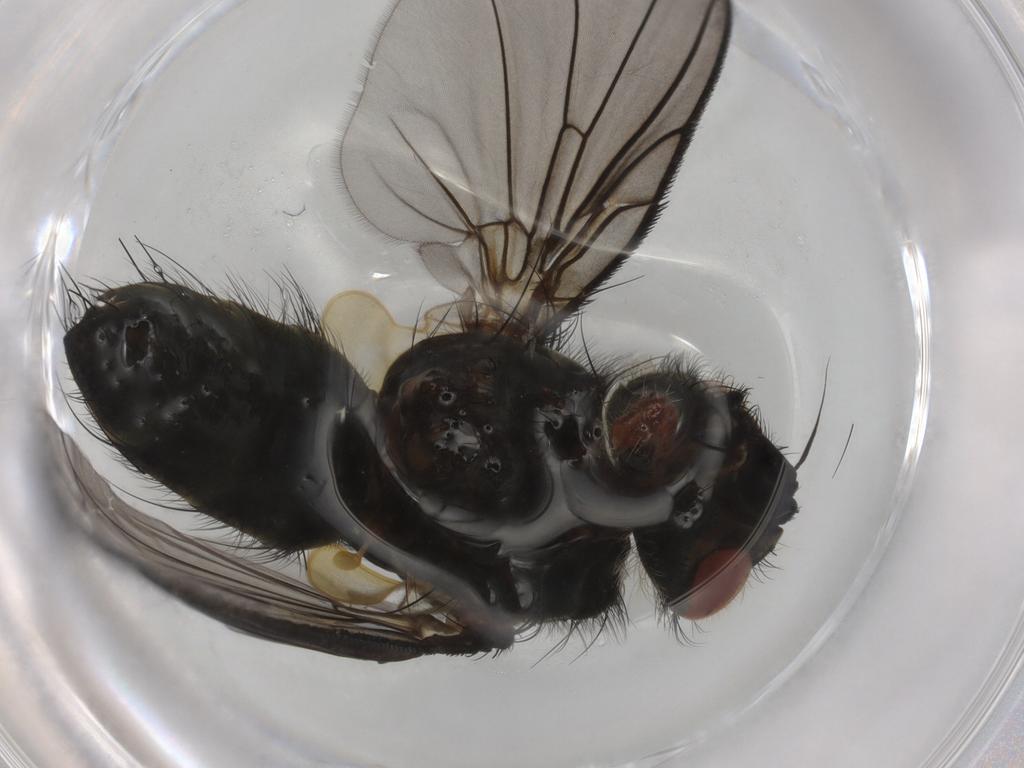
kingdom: Animalia
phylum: Arthropoda
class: Insecta
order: Diptera
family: Tachinidae
